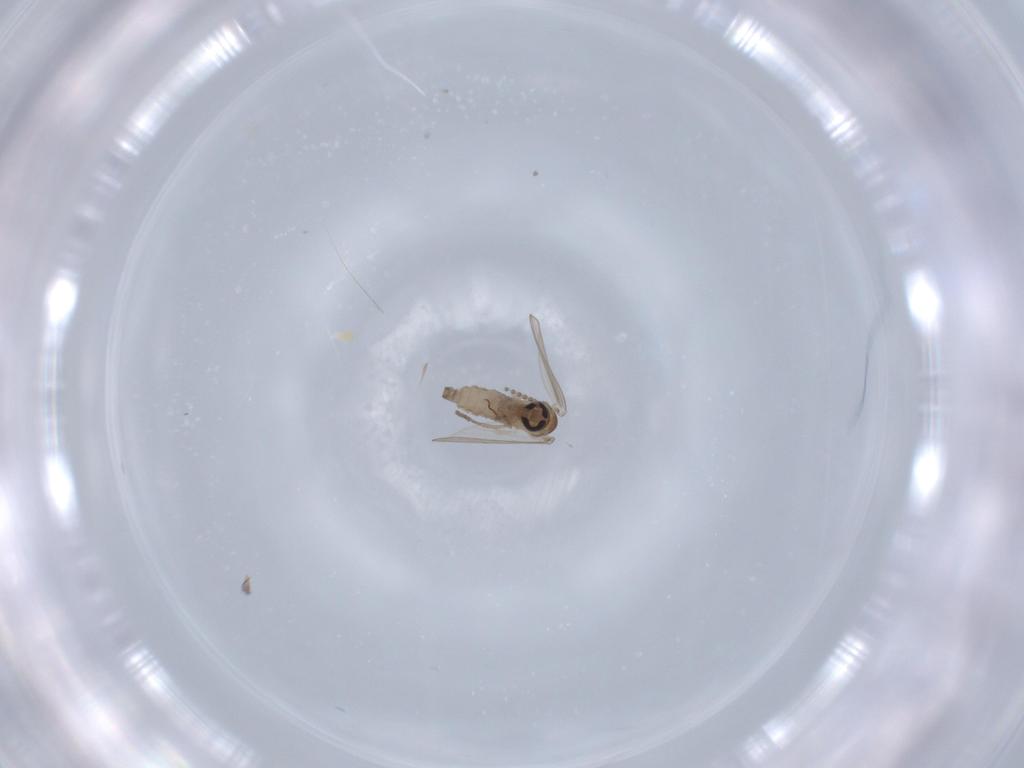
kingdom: Animalia
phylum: Arthropoda
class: Insecta
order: Diptera
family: Psychodidae
